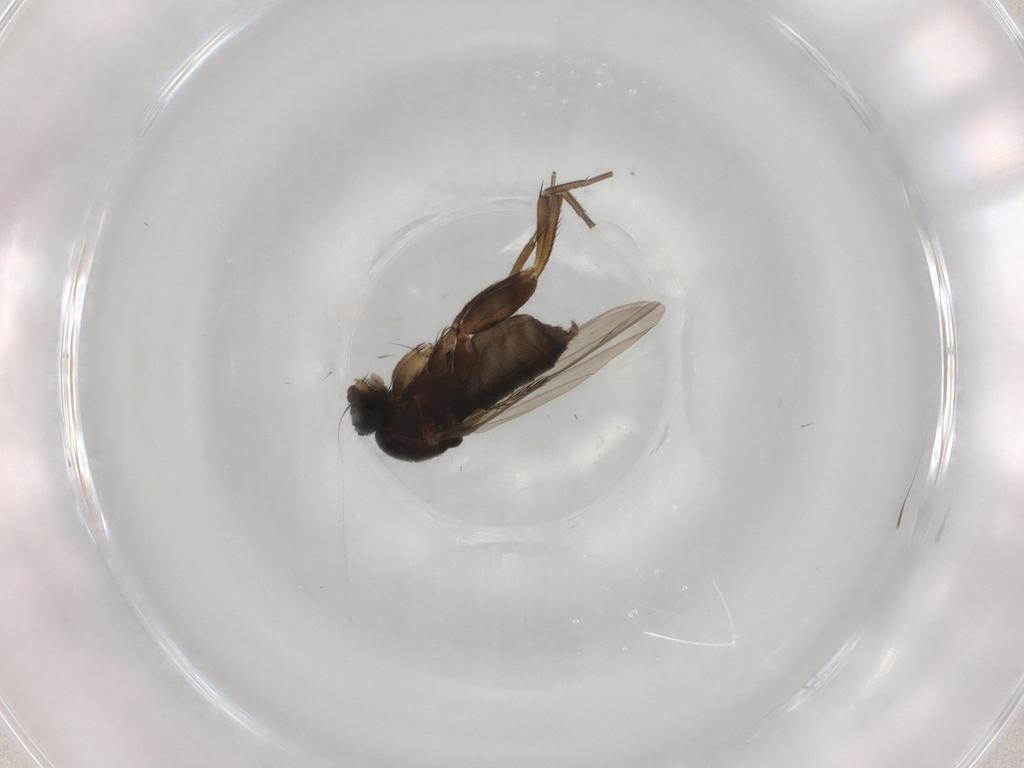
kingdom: Animalia
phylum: Arthropoda
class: Insecta
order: Diptera
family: Phoridae
